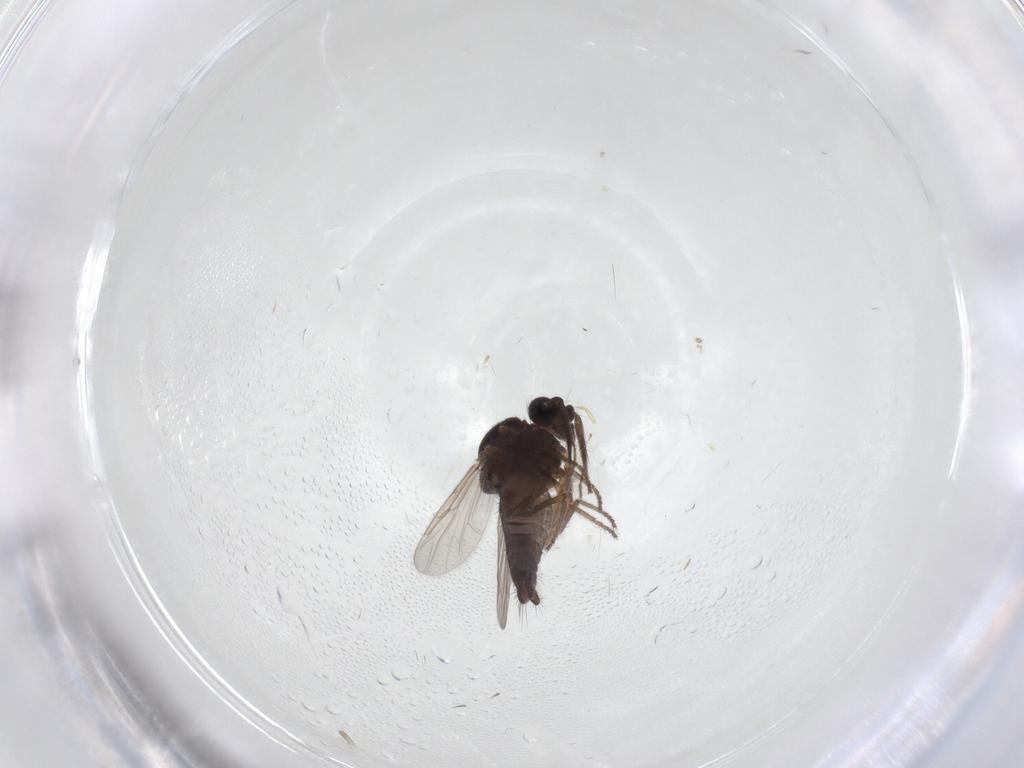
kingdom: Animalia
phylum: Arthropoda
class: Insecta
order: Diptera
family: Ceratopogonidae
